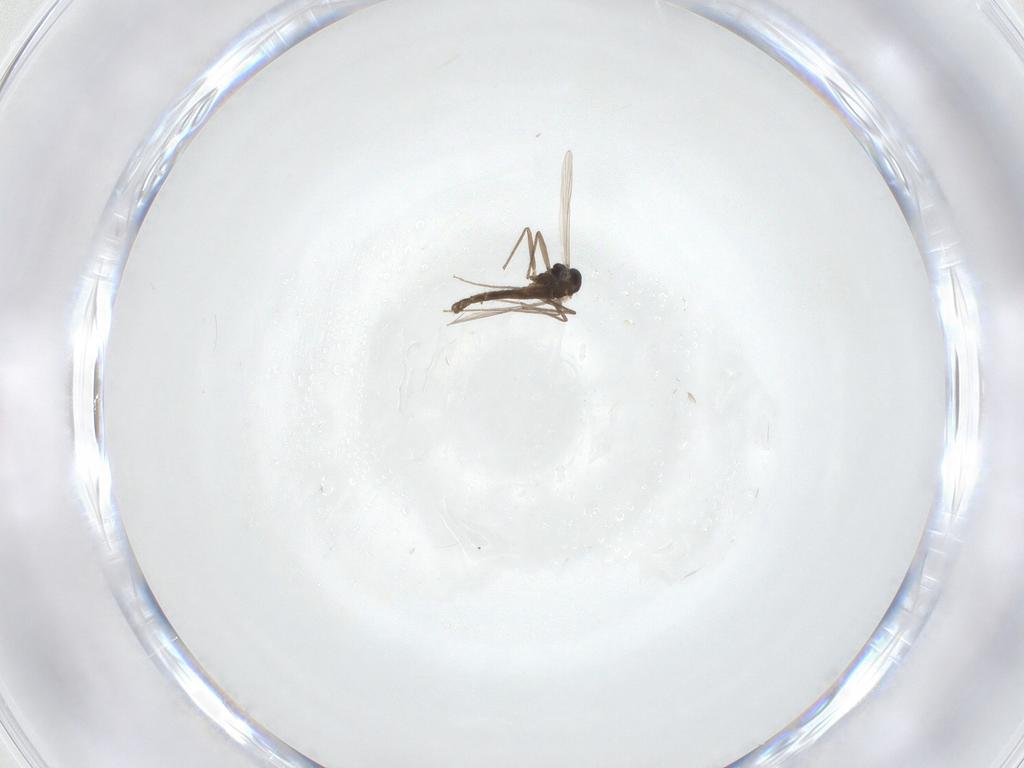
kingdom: Animalia
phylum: Arthropoda
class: Insecta
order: Diptera
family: Chironomidae
